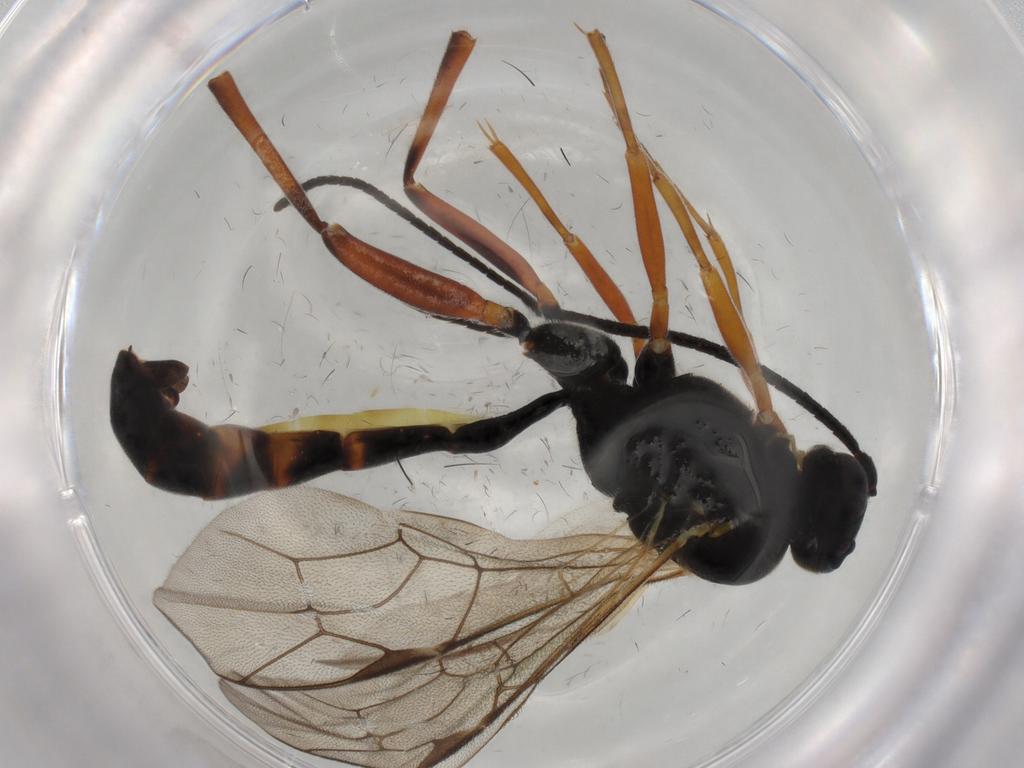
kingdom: Animalia
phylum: Arthropoda
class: Insecta
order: Hymenoptera
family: Ichneumonidae
